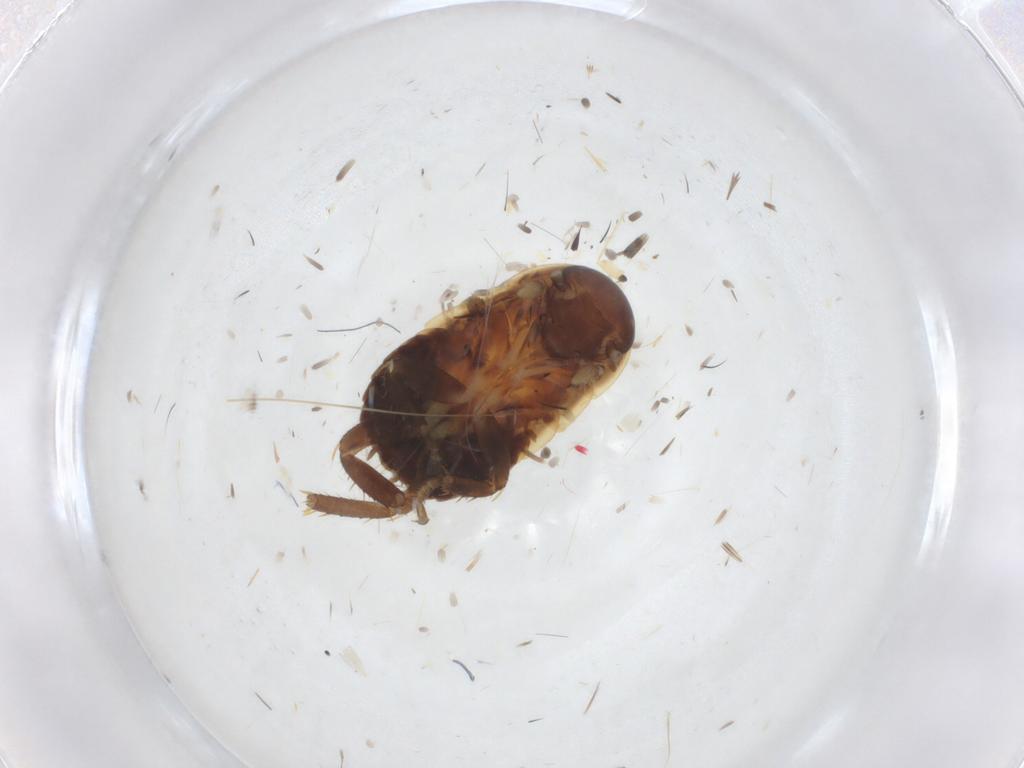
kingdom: Animalia
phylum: Arthropoda
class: Insecta
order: Blattodea
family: Ectobiidae
